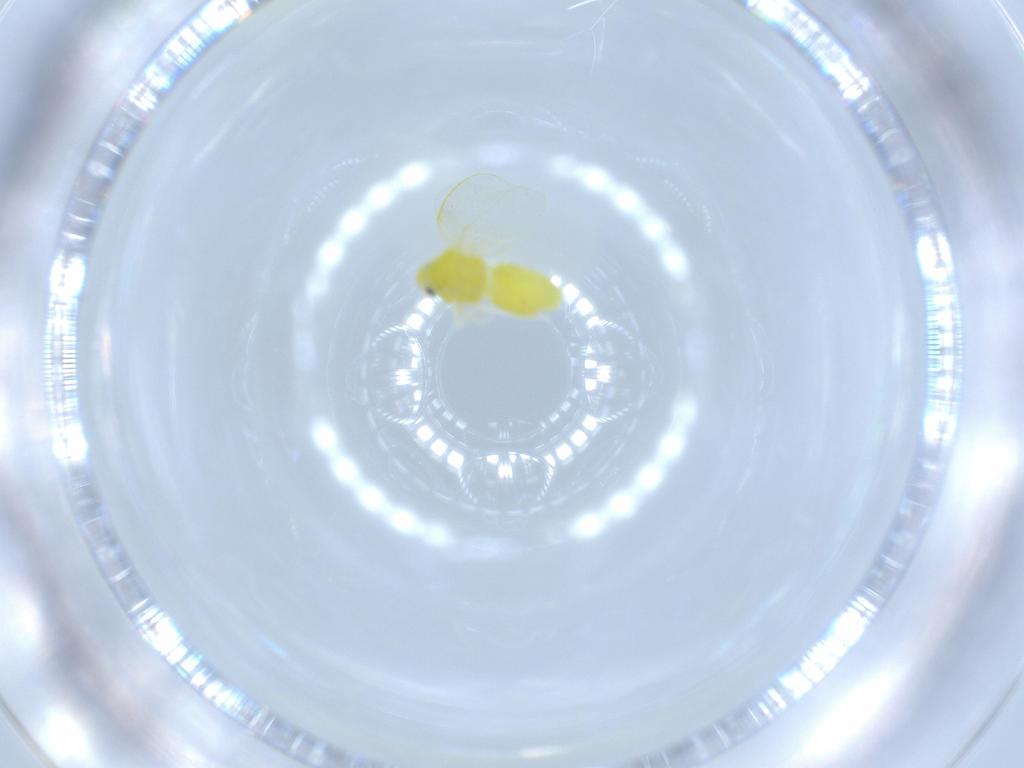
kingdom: Animalia
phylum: Arthropoda
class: Insecta
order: Hemiptera
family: Aleyrodidae
